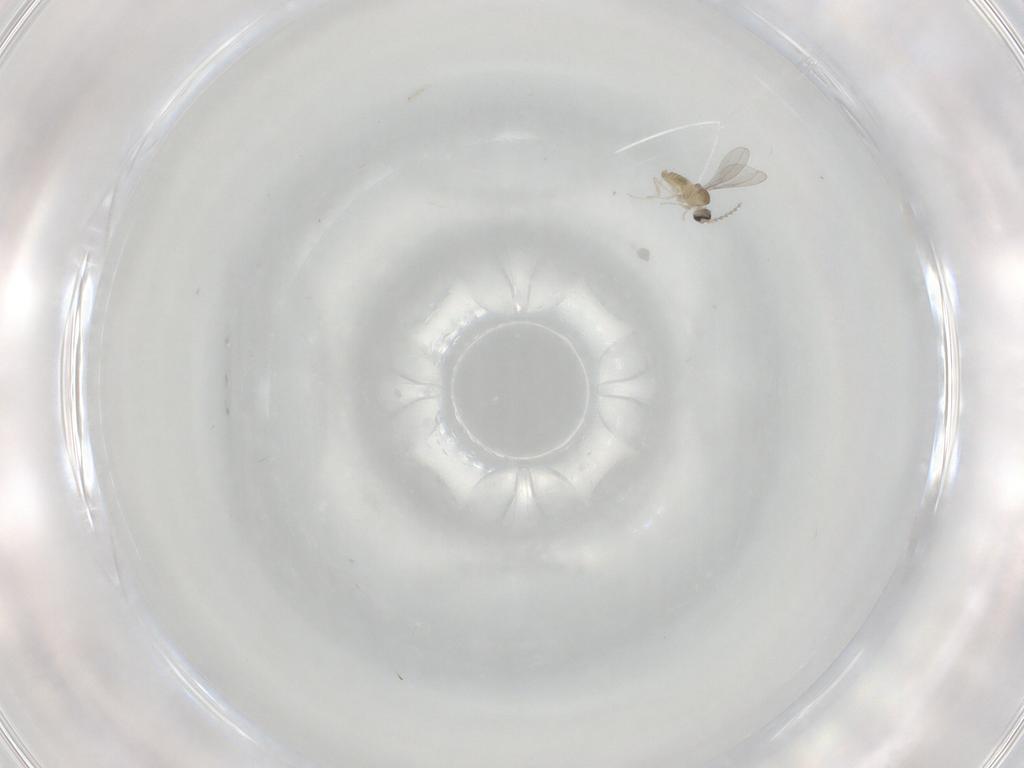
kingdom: Animalia
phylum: Arthropoda
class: Insecta
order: Diptera
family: Cecidomyiidae
